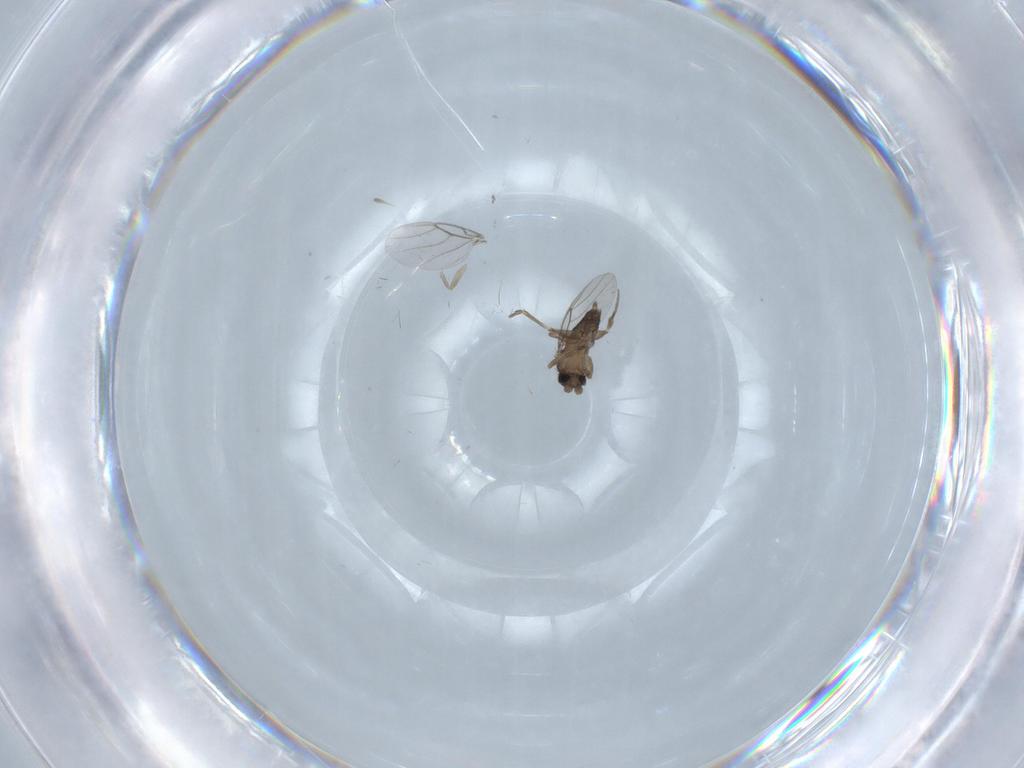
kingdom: Animalia
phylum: Arthropoda
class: Insecta
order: Diptera
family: Phoridae
